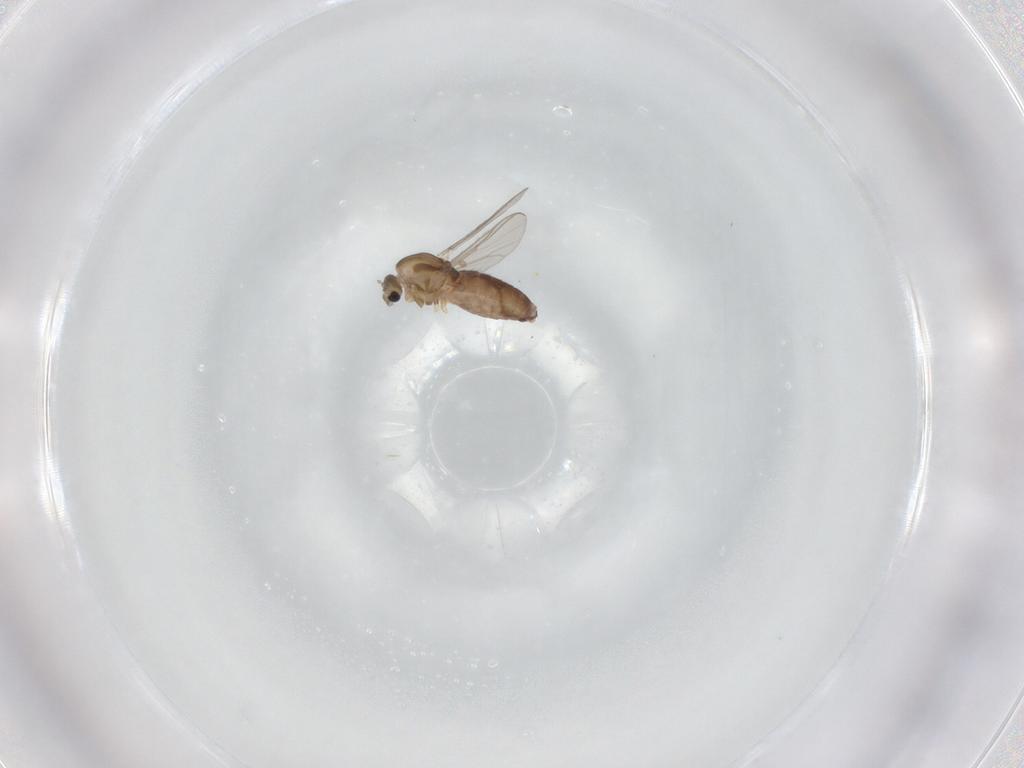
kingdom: Animalia
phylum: Arthropoda
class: Insecta
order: Diptera
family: Chironomidae
